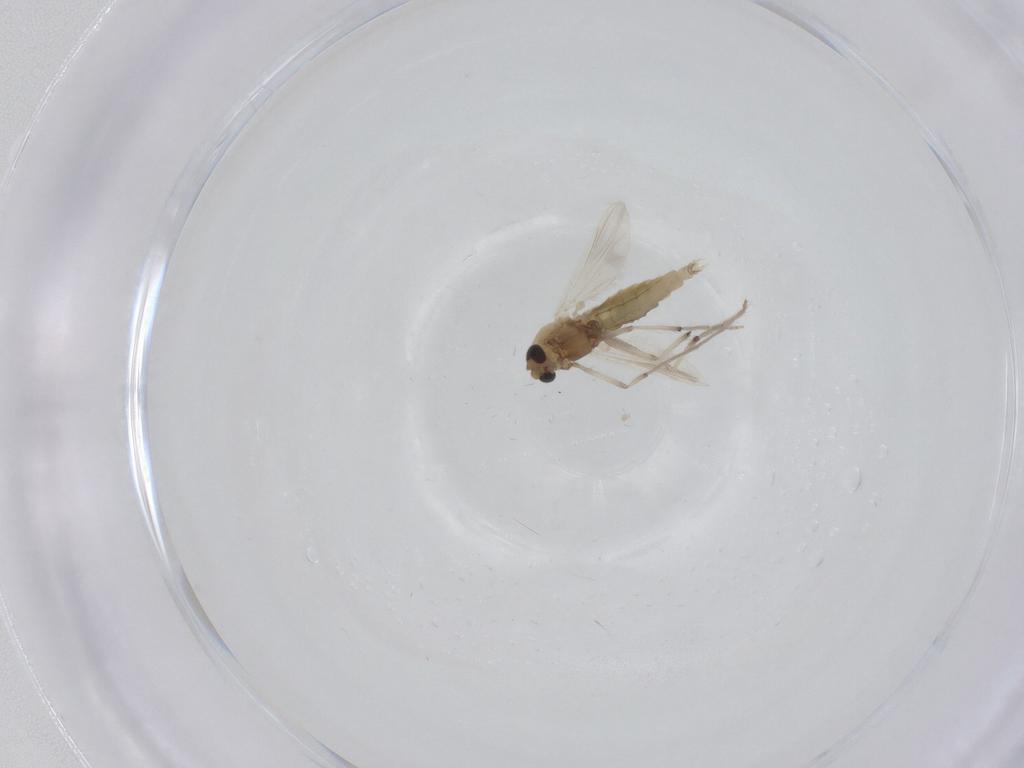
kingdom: Animalia
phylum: Arthropoda
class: Insecta
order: Diptera
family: Chironomidae
